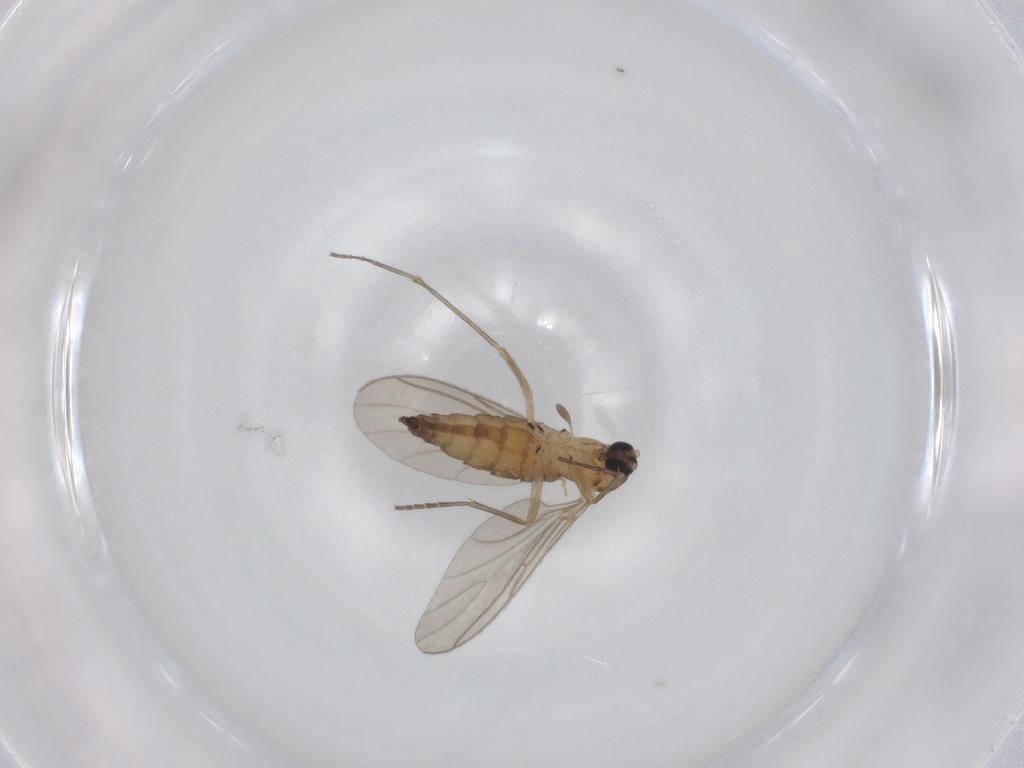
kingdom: Animalia
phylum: Arthropoda
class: Insecta
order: Diptera
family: Sciaridae
